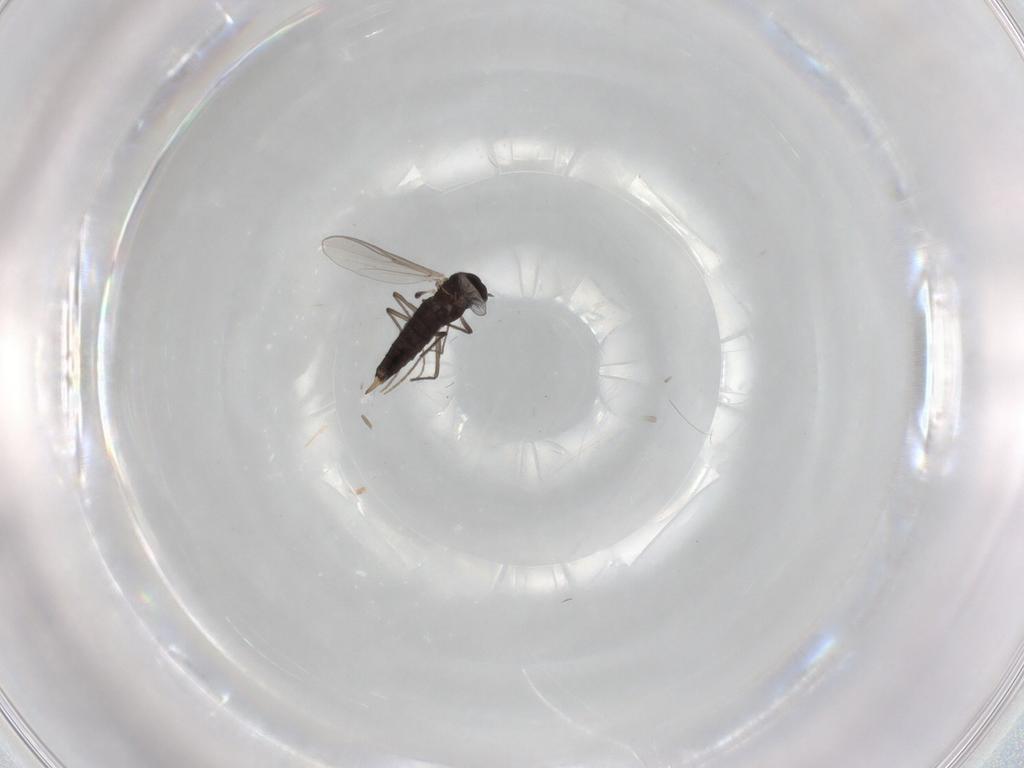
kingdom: Animalia
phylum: Arthropoda
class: Insecta
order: Diptera
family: Chironomidae
